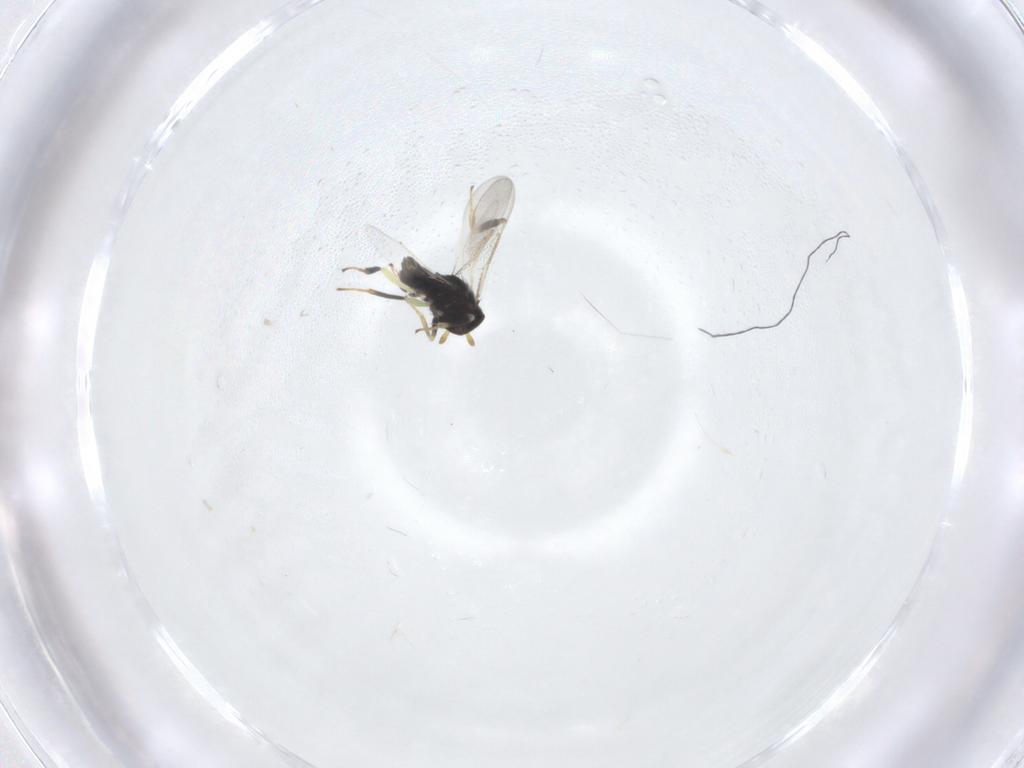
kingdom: Animalia
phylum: Arthropoda
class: Insecta
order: Hymenoptera
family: Aphelinidae
